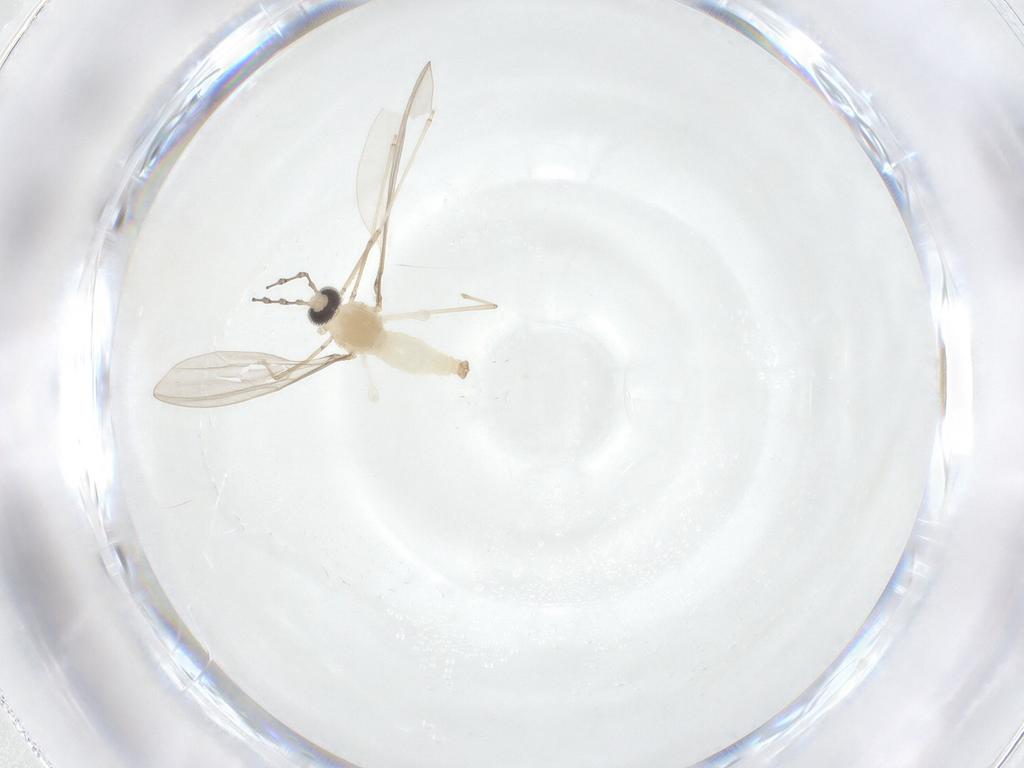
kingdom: Animalia
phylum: Arthropoda
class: Insecta
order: Diptera
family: Cecidomyiidae
